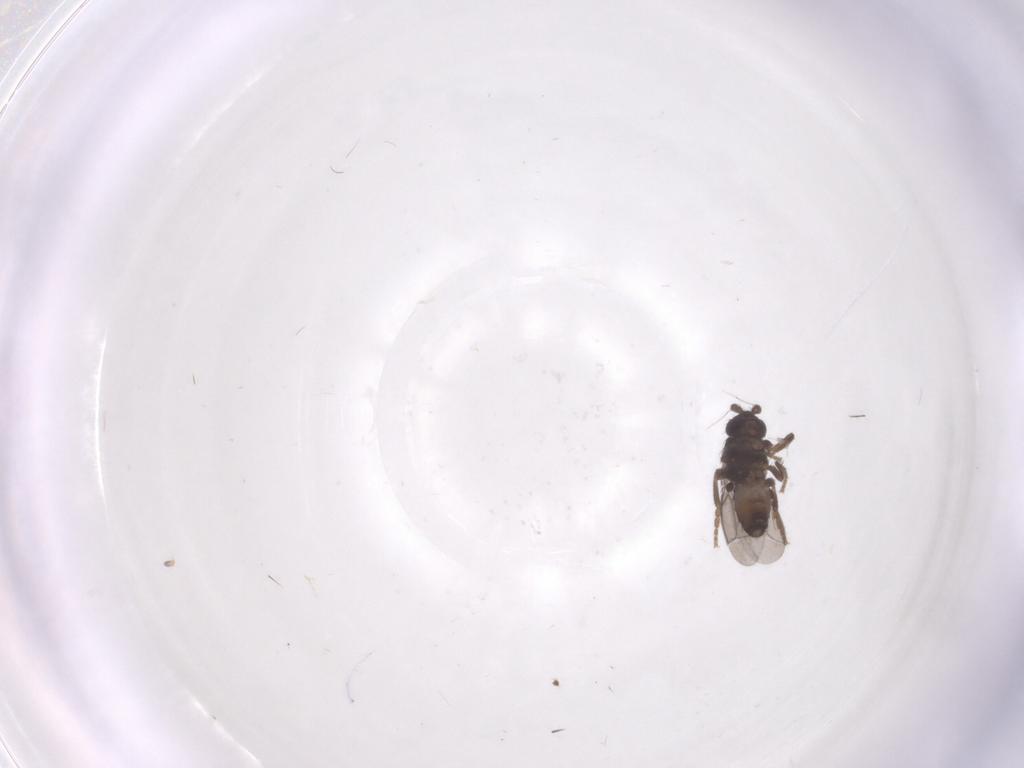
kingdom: Animalia
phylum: Arthropoda
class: Insecta
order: Diptera
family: Sphaeroceridae
